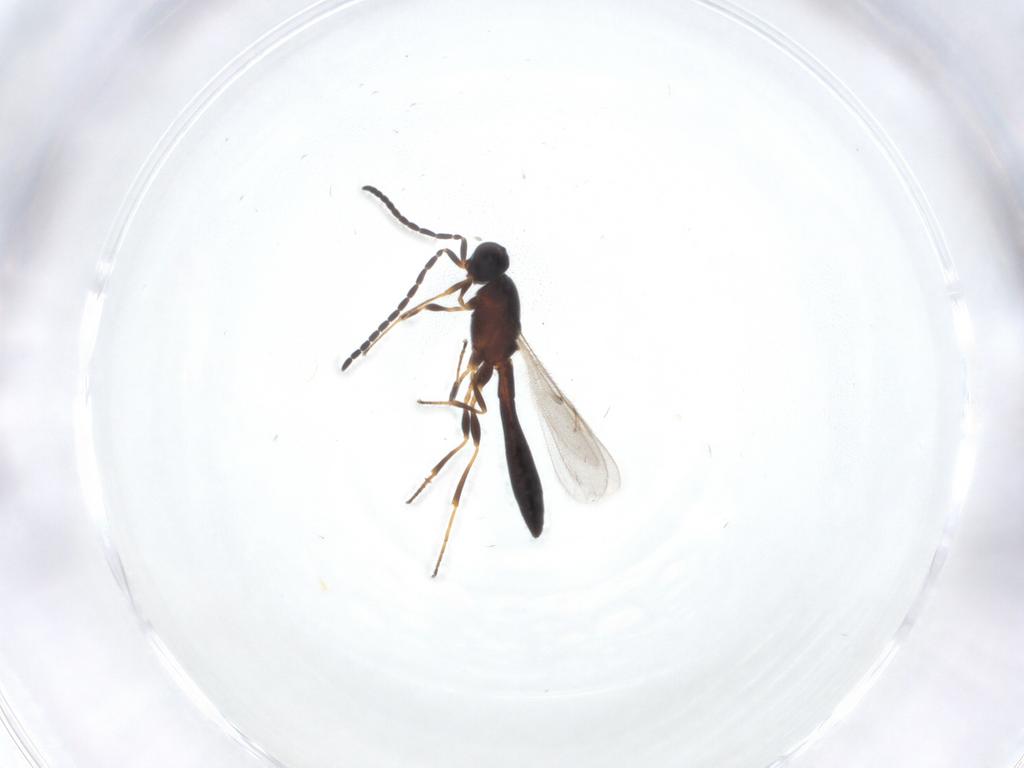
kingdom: Animalia
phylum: Arthropoda
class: Insecta
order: Hymenoptera
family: Scelionidae
